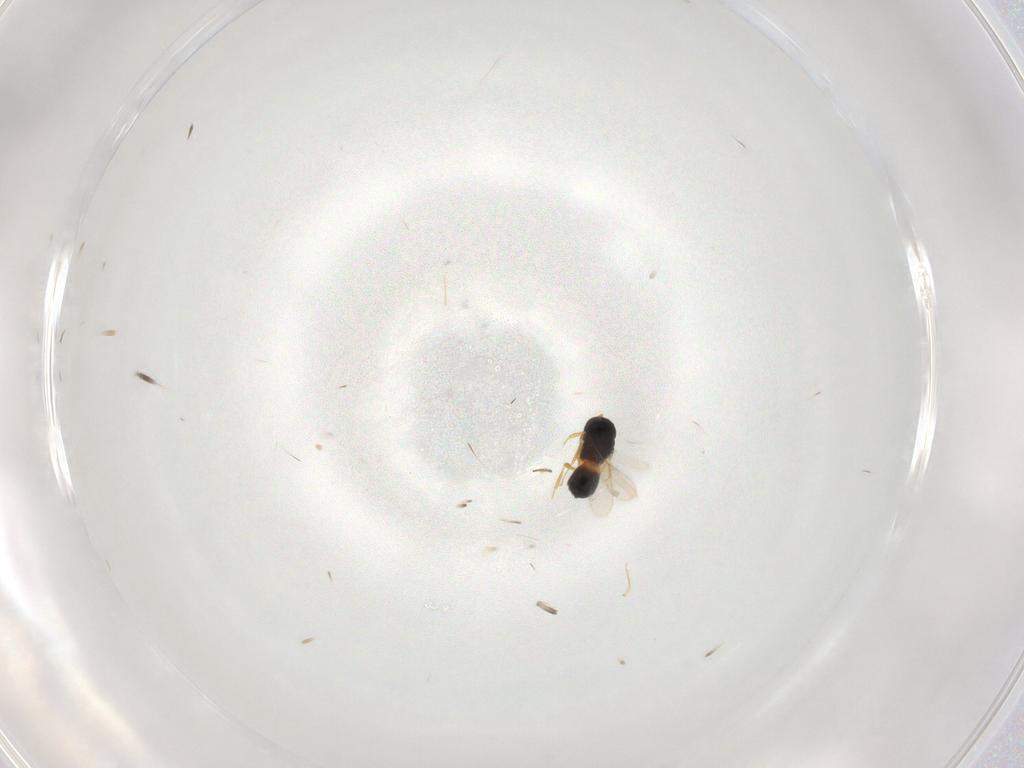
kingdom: Animalia
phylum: Arthropoda
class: Insecta
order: Hymenoptera
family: Scelionidae
